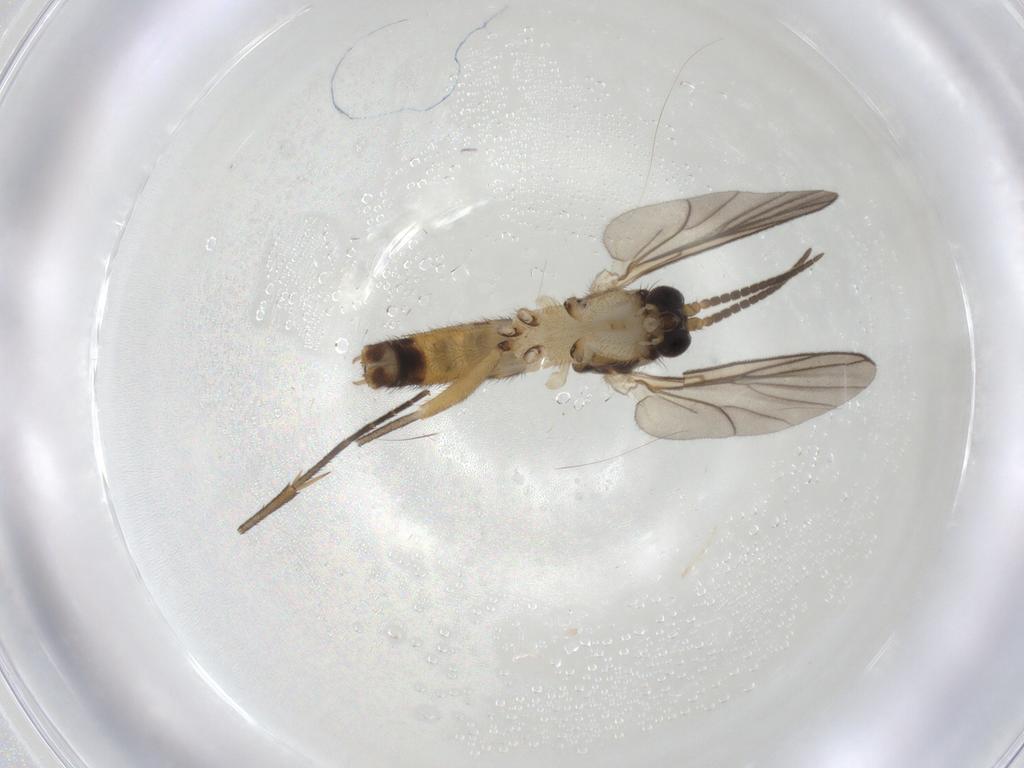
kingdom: Animalia
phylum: Arthropoda
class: Insecta
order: Diptera
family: Mycetophilidae
